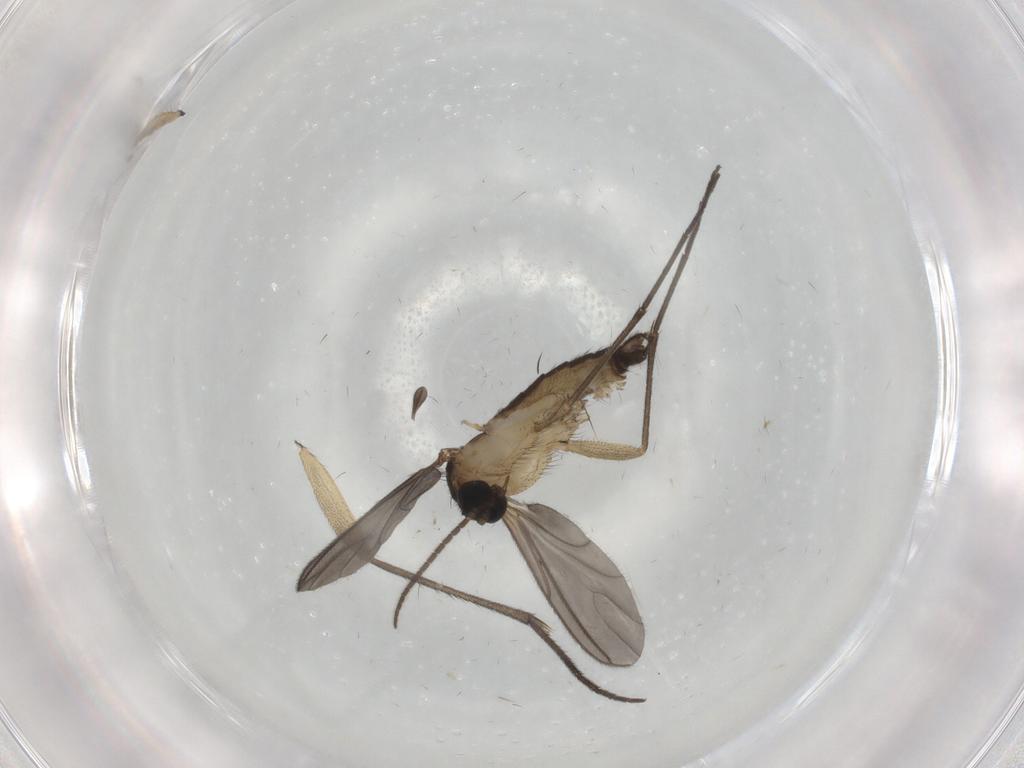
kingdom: Animalia
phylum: Arthropoda
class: Insecta
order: Diptera
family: Sciaridae
